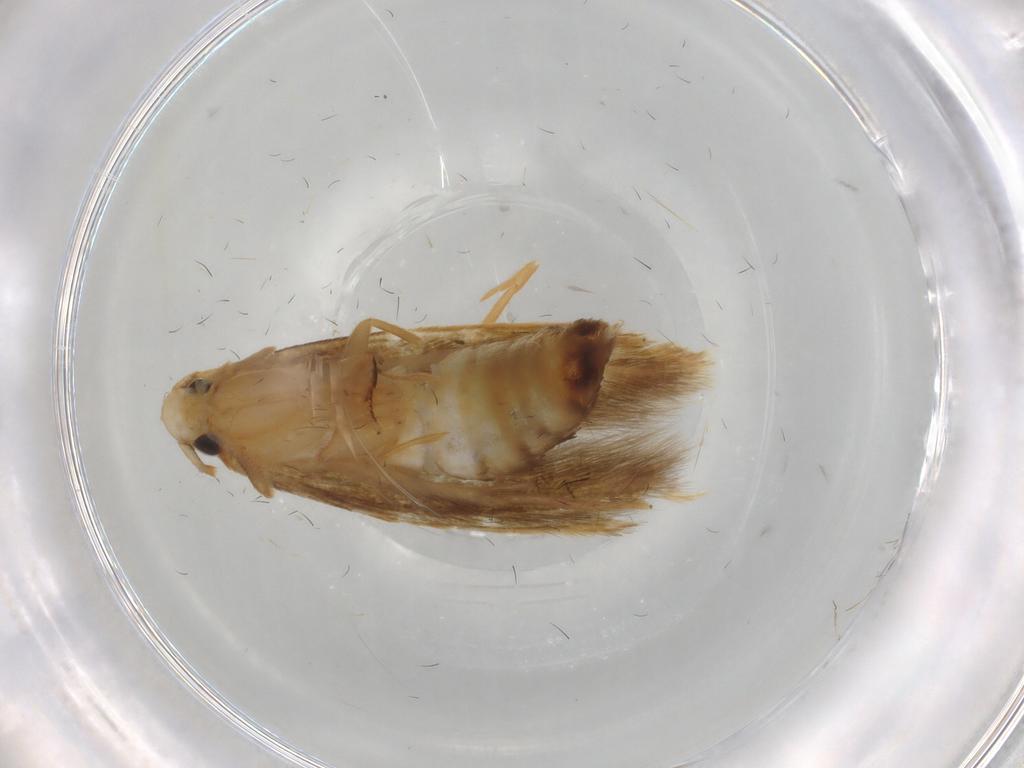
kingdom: Animalia
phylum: Arthropoda
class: Insecta
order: Lepidoptera
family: Tineidae
